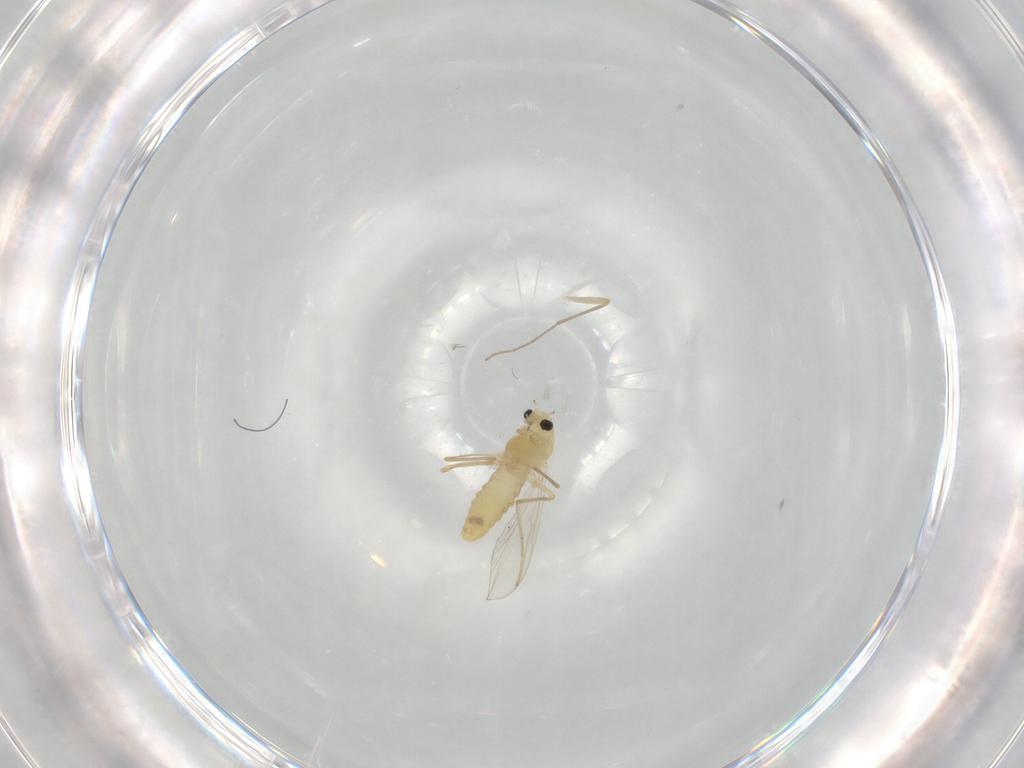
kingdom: Animalia
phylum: Arthropoda
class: Insecta
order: Diptera
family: Chironomidae
